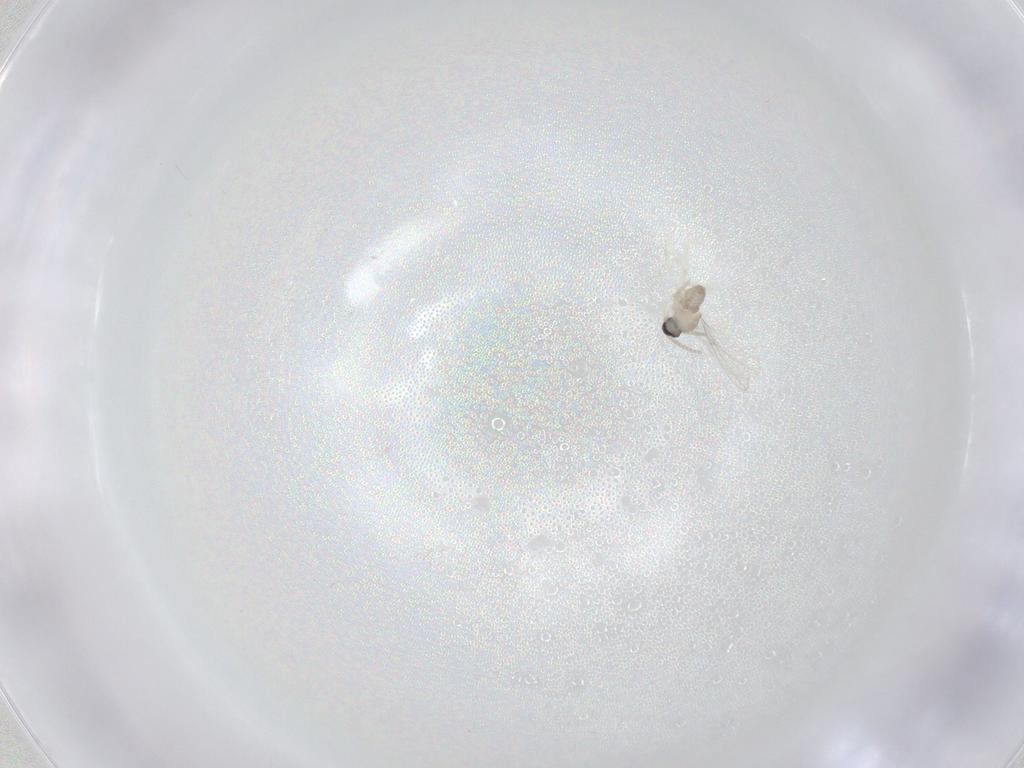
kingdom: Animalia
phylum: Arthropoda
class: Insecta
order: Diptera
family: Cecidomyiidae
